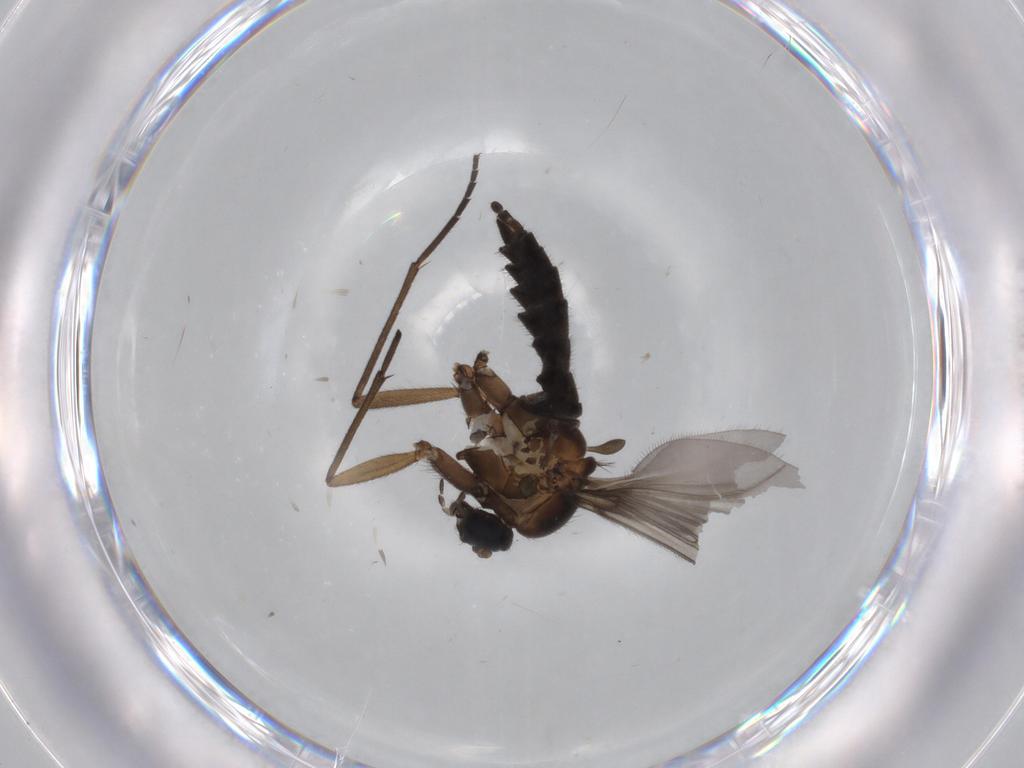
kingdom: Animalia
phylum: Arthropoda
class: Insecta
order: Diptera
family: Sciaridae
